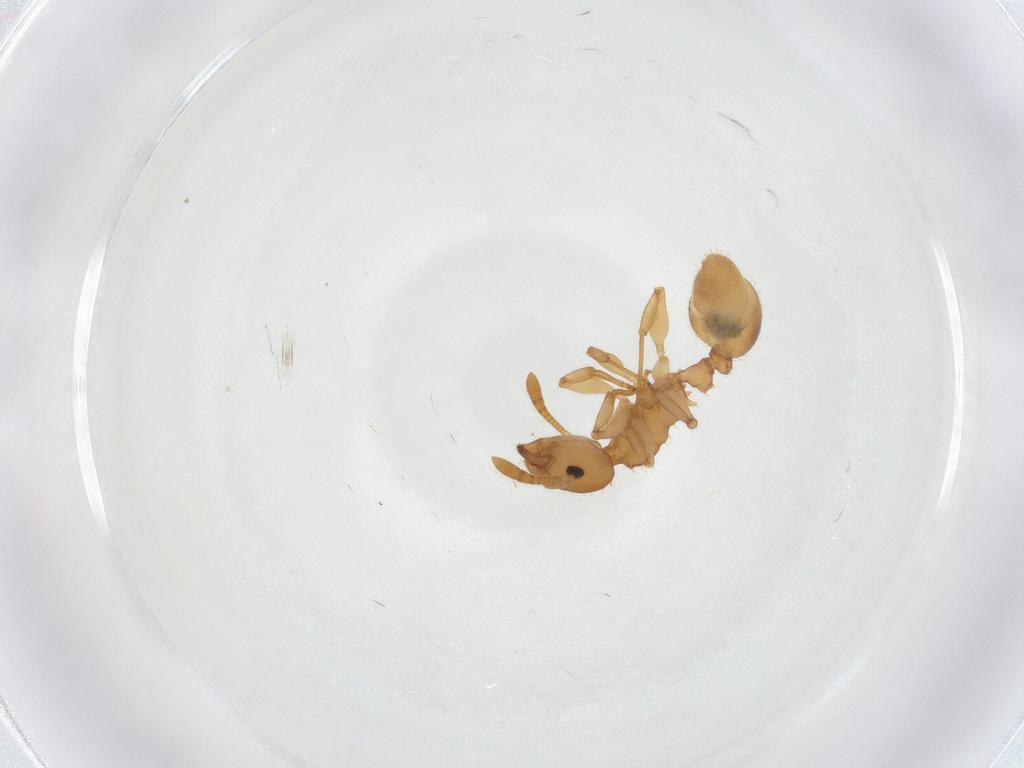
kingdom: Animalia
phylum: Arthropoda
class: Insecta
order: Hymenoptera
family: Formicidae
